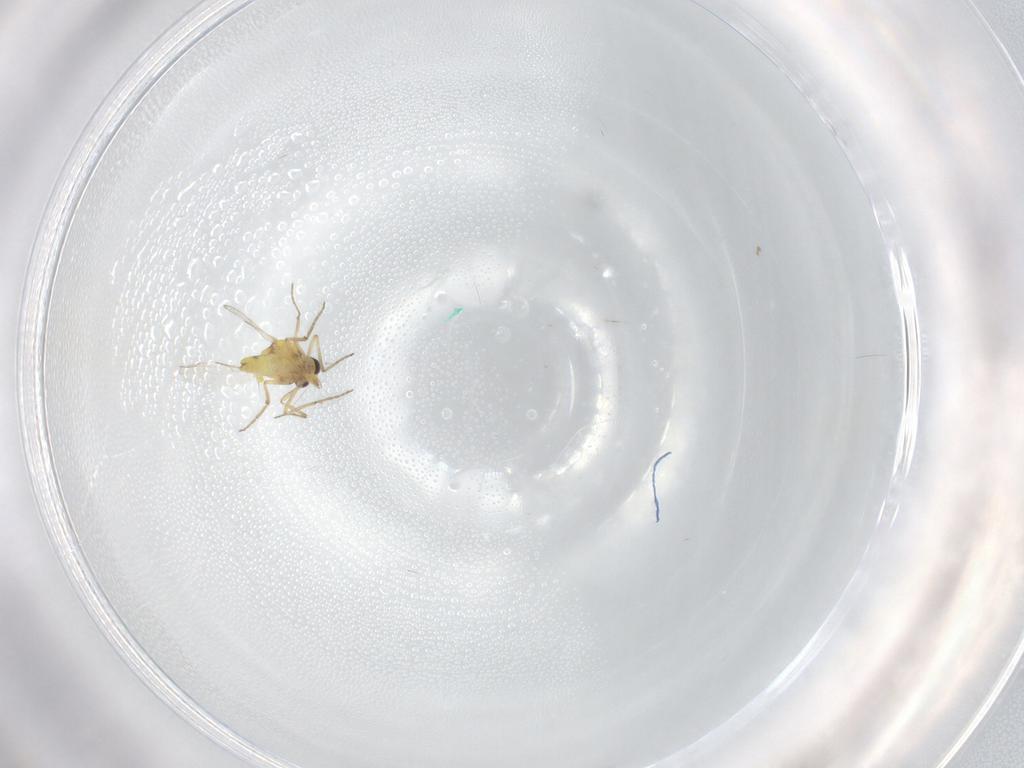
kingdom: Animalia
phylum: Arthropoda
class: Insecta
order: Diptera
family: Ceratopogonidae
